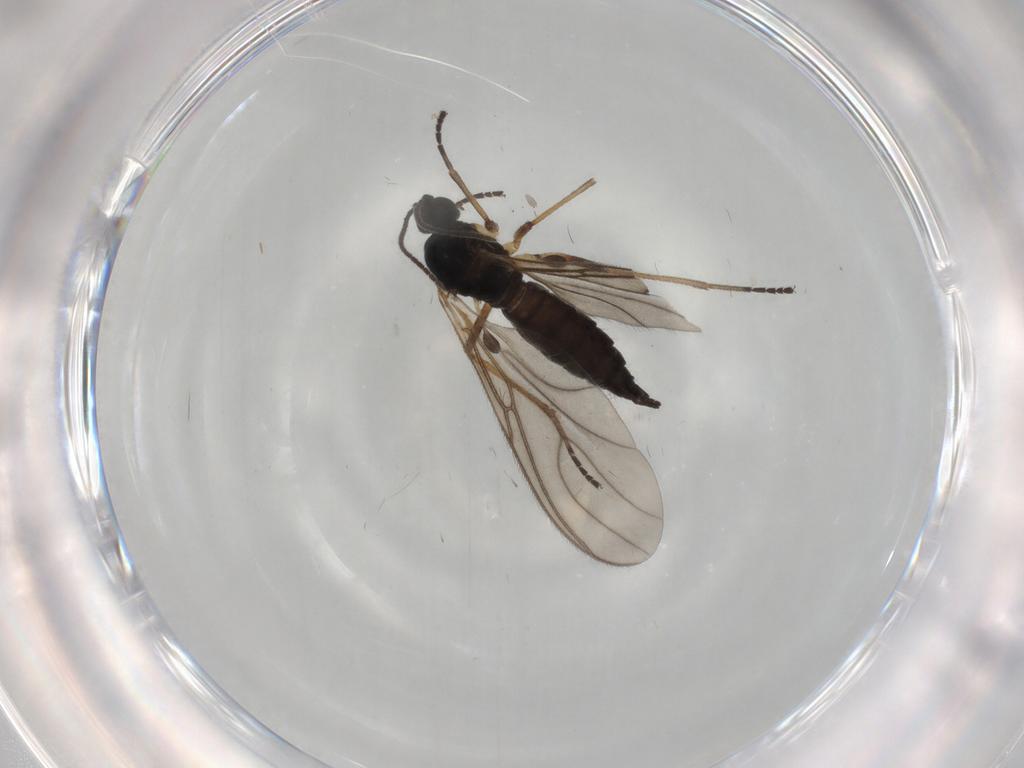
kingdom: Animalia
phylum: Arthropoda
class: Insecta
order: Diptera
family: Sciaridae
